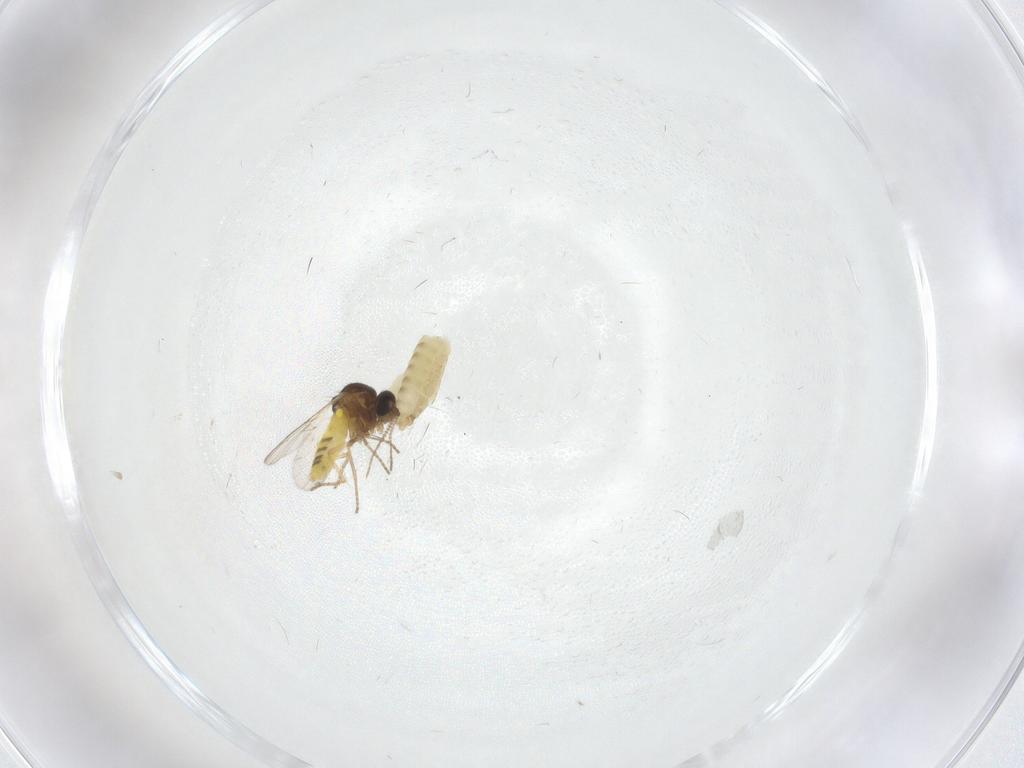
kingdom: Animalia
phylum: Arthropoda
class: Insecta
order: Diptera
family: Chironomidae
